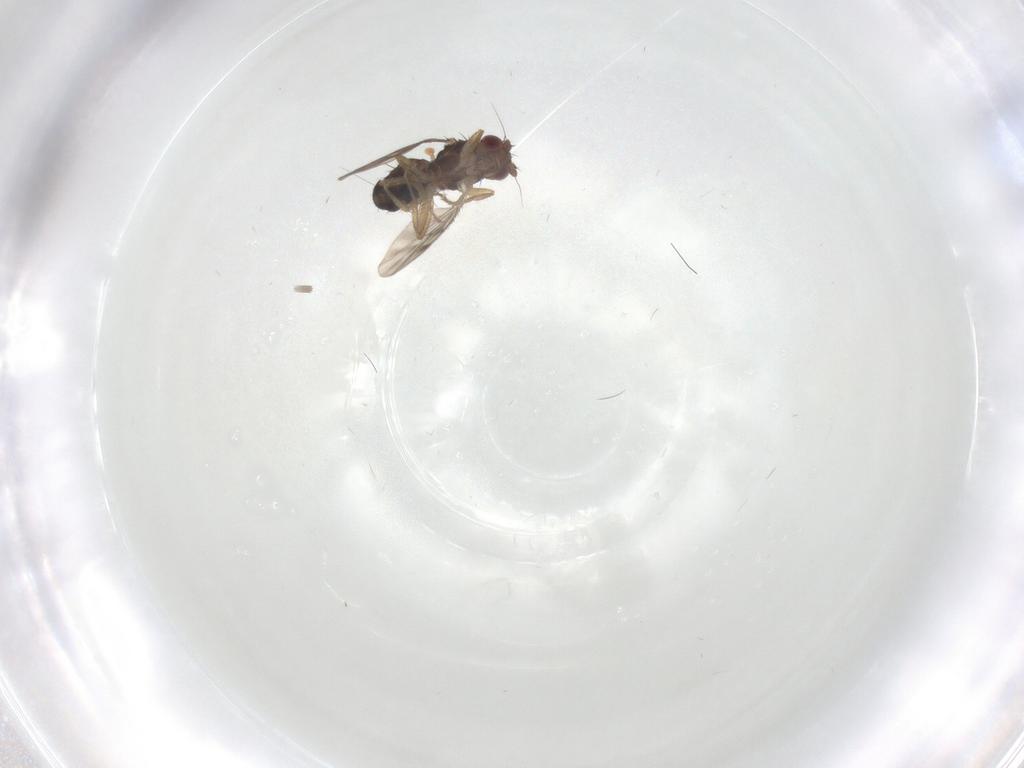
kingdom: Animalia
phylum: Arthropoda
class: Insecta
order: Diptera
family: Sphaeroceridae
